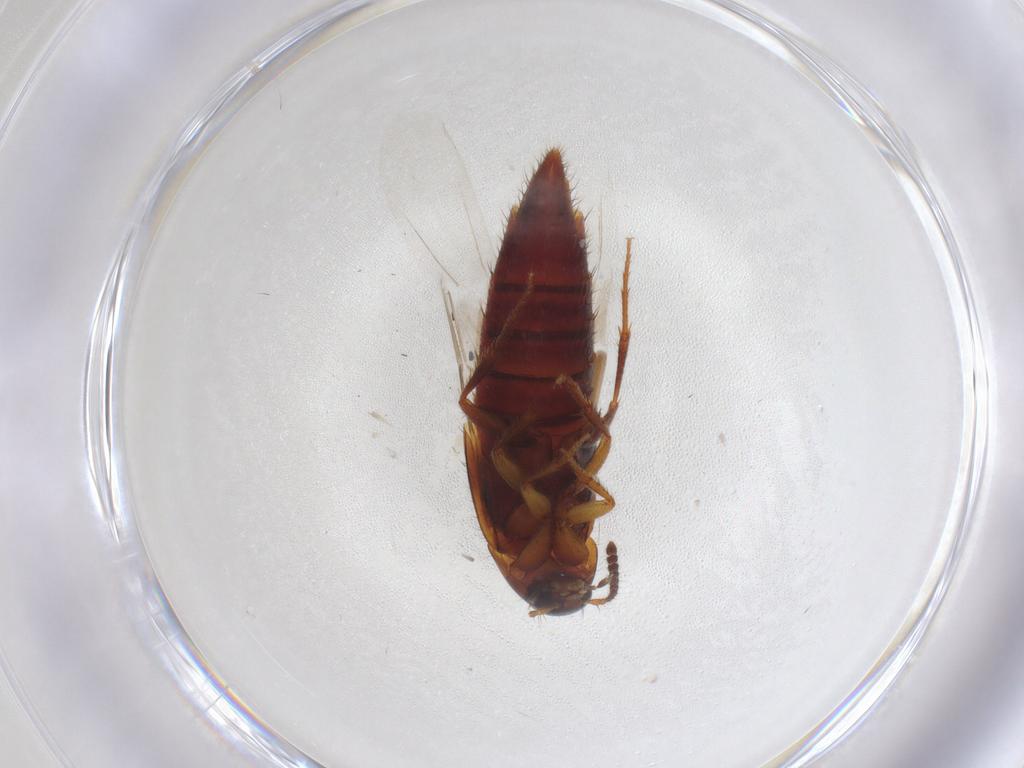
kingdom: Animalia
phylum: Arthropoda
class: Insecta
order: Coleoptera
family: Staphylinidae
